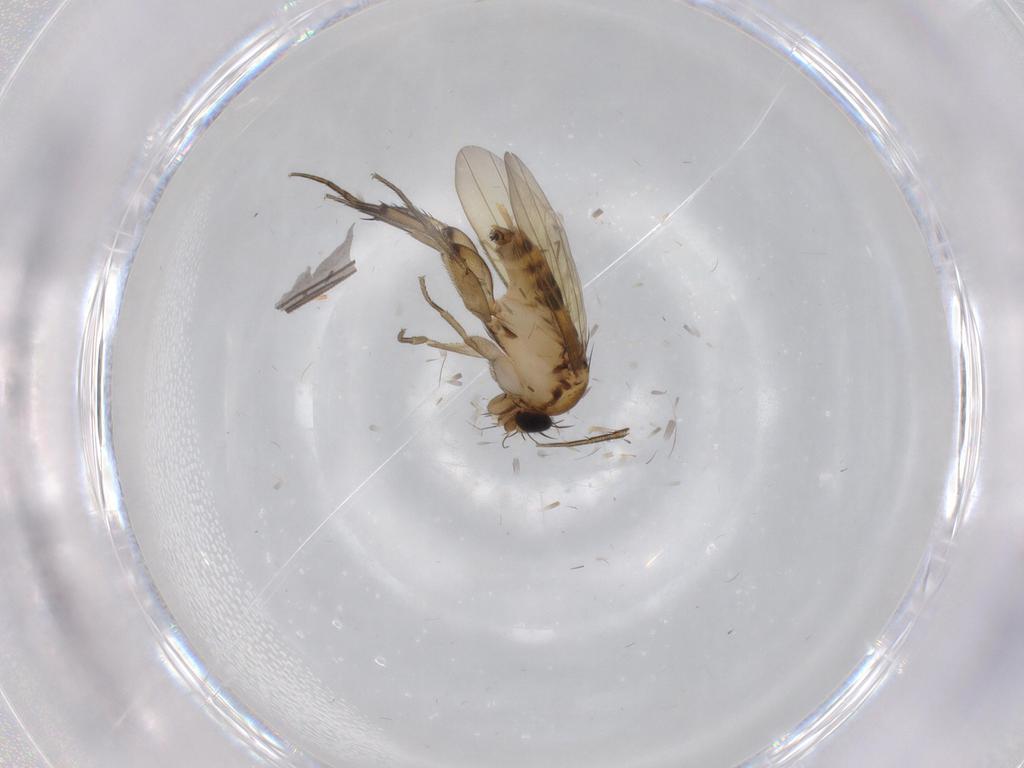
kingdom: Animalia
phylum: Arthropoda
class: Insecta
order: Diptera
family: Phoridae
